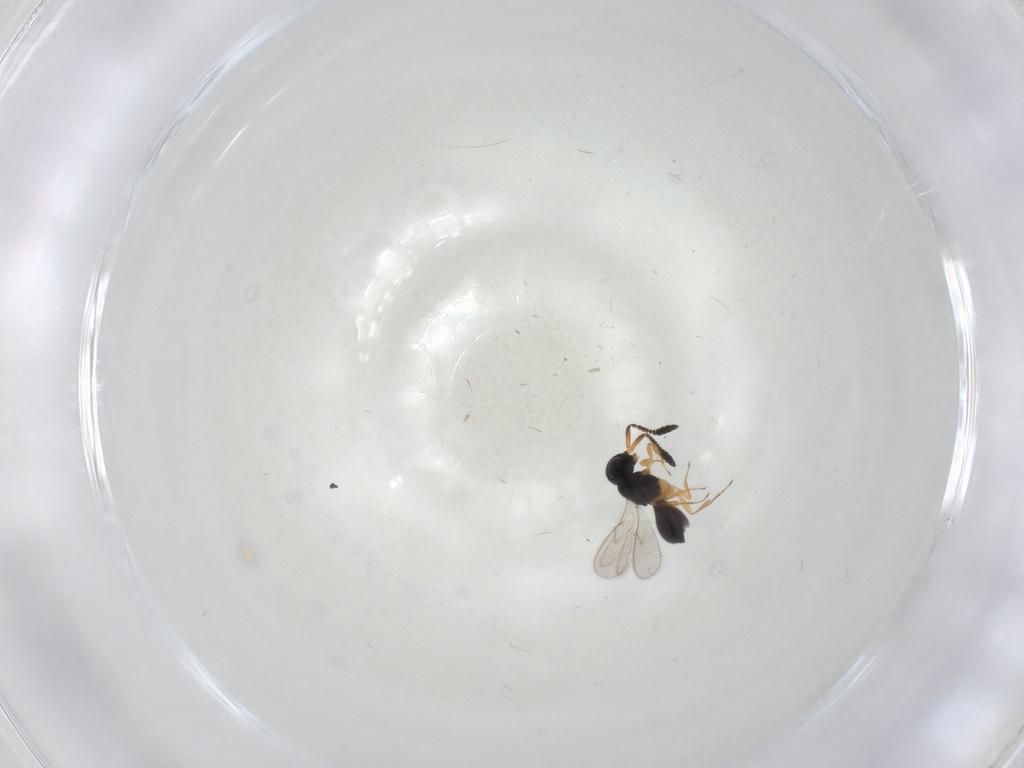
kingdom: Animalia
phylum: Arthropoda
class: Insecta
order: Hymenoptera
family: Scelionidae
